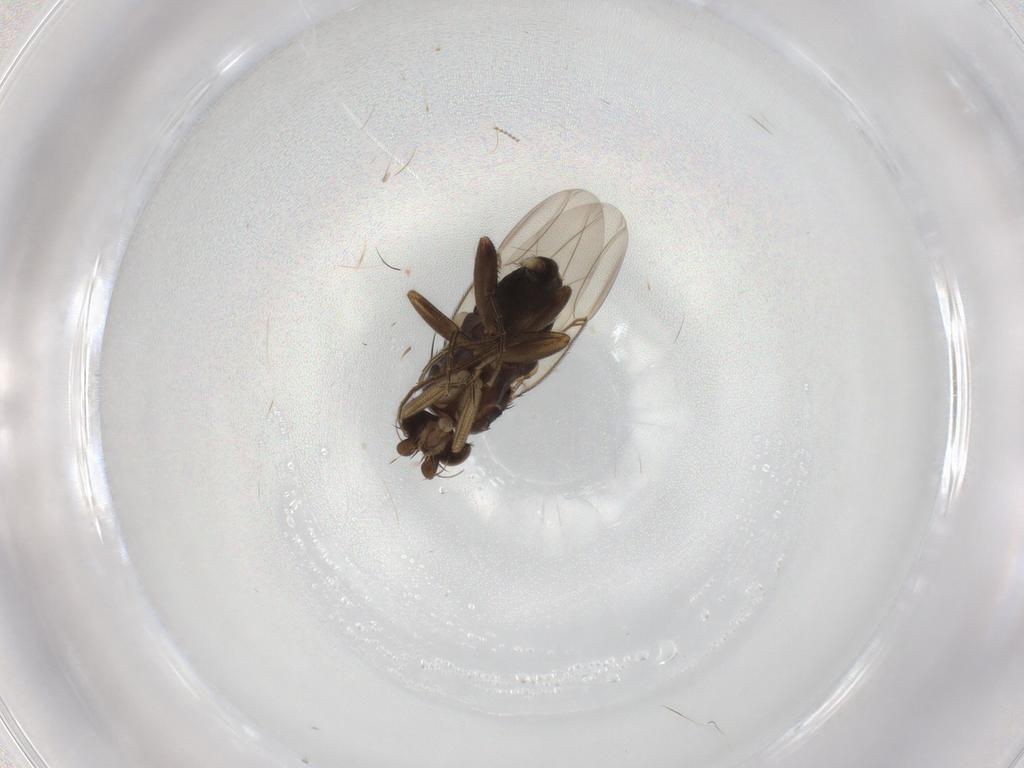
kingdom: Animalia
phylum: Arthropoda
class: Insecta
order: Diptera
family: Phoridae
